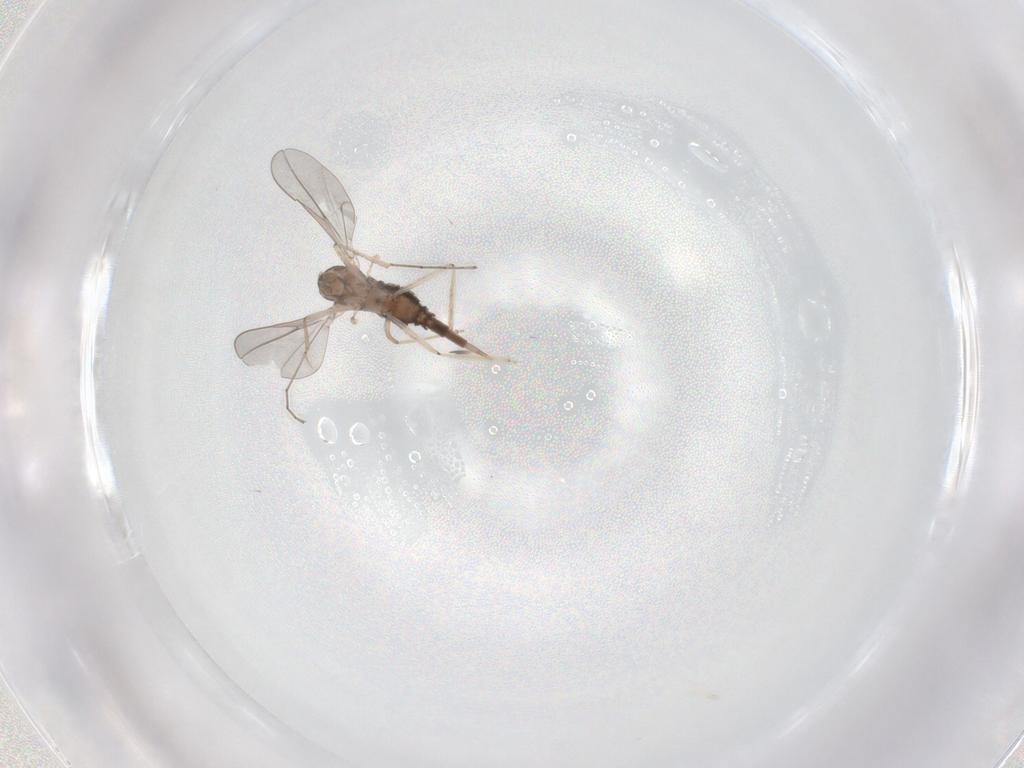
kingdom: Animalia
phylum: Arthropoda
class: Insecta
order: Diptera
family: Cecidomyiidae
